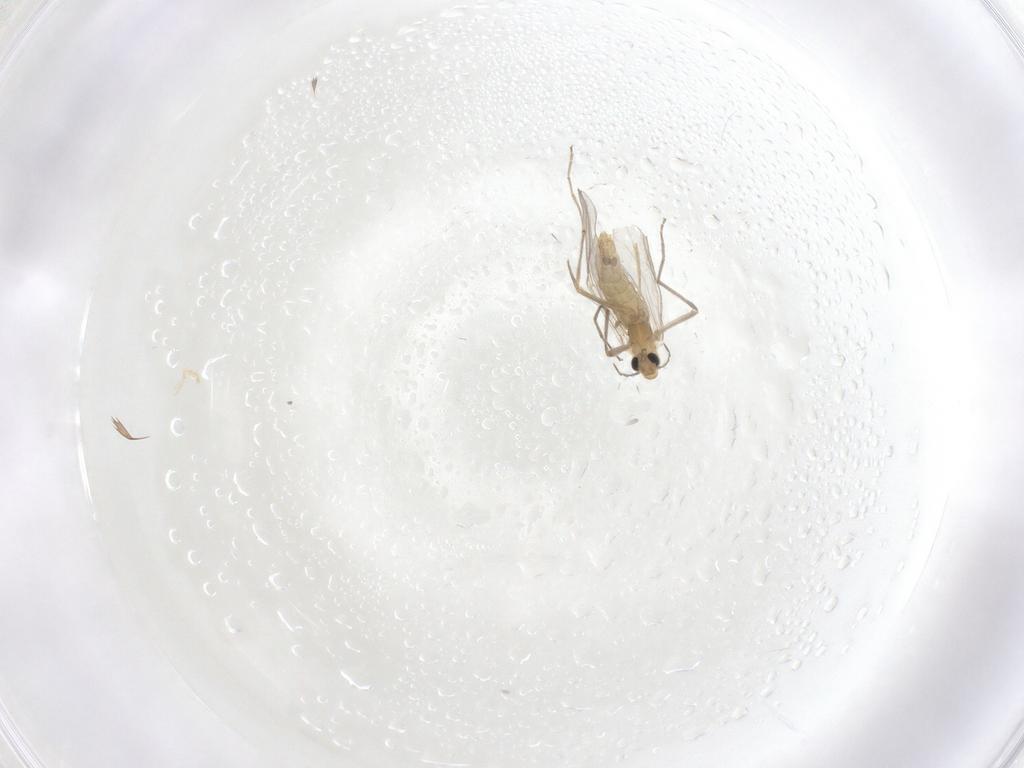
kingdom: Animalia
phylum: Arthropoda
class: Insecta
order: Diptera
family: Chironomidae
